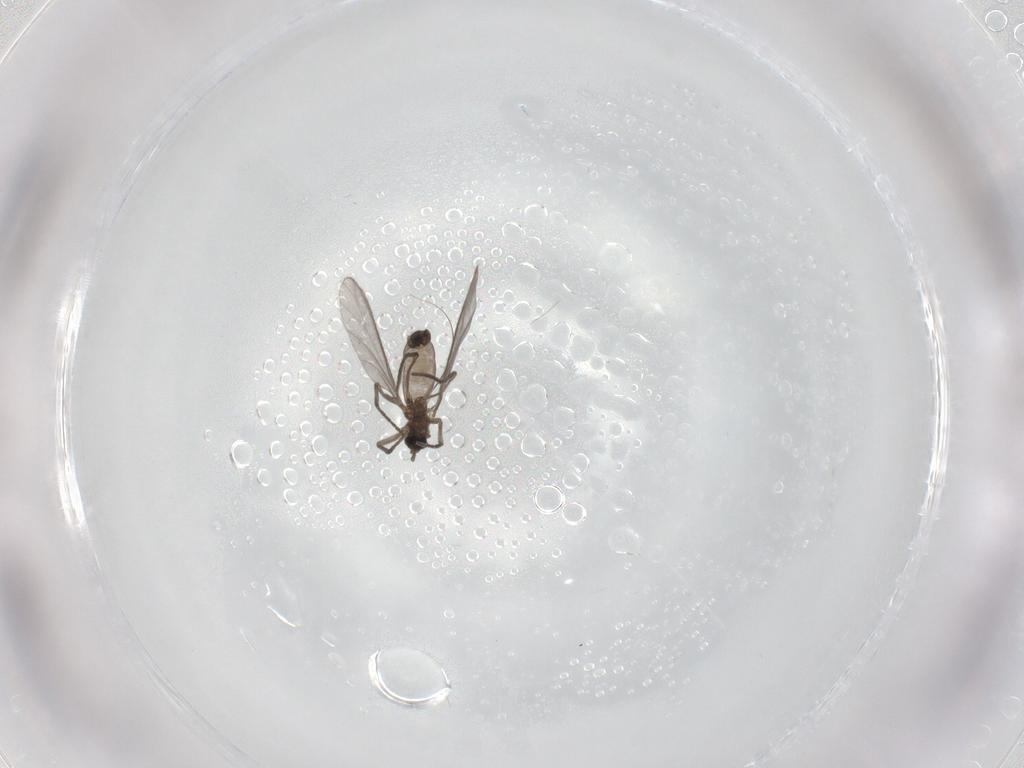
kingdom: Animalia
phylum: Arthropoda
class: Insecta
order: Diptera
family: Sciaridae
